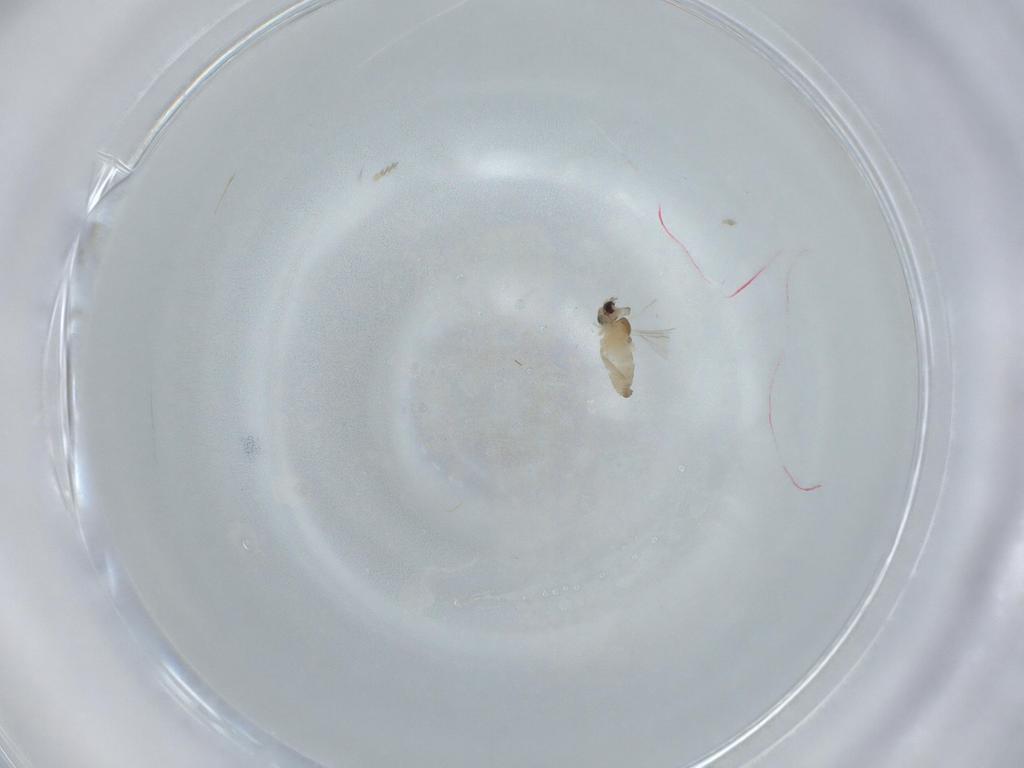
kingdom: Animalia
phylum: Arthropoda
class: Insecta
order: Diptera
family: Cecidomyiidae
